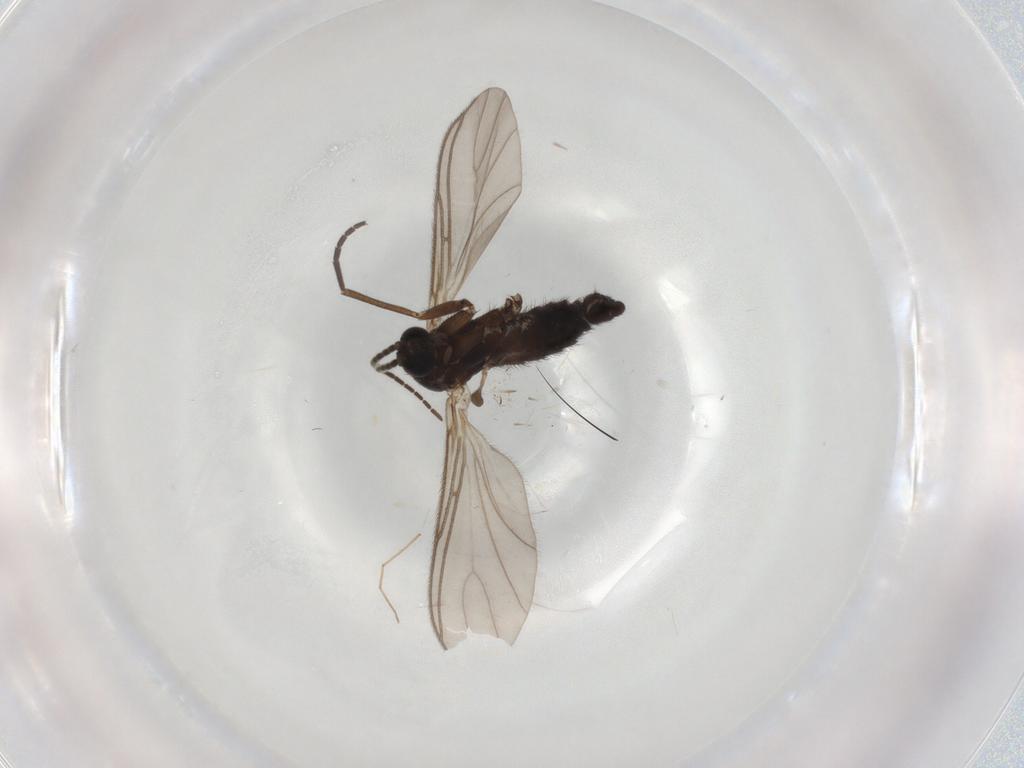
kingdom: Animalia
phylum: Arthropoda
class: Insecta
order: Diptera
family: Sciaridae
